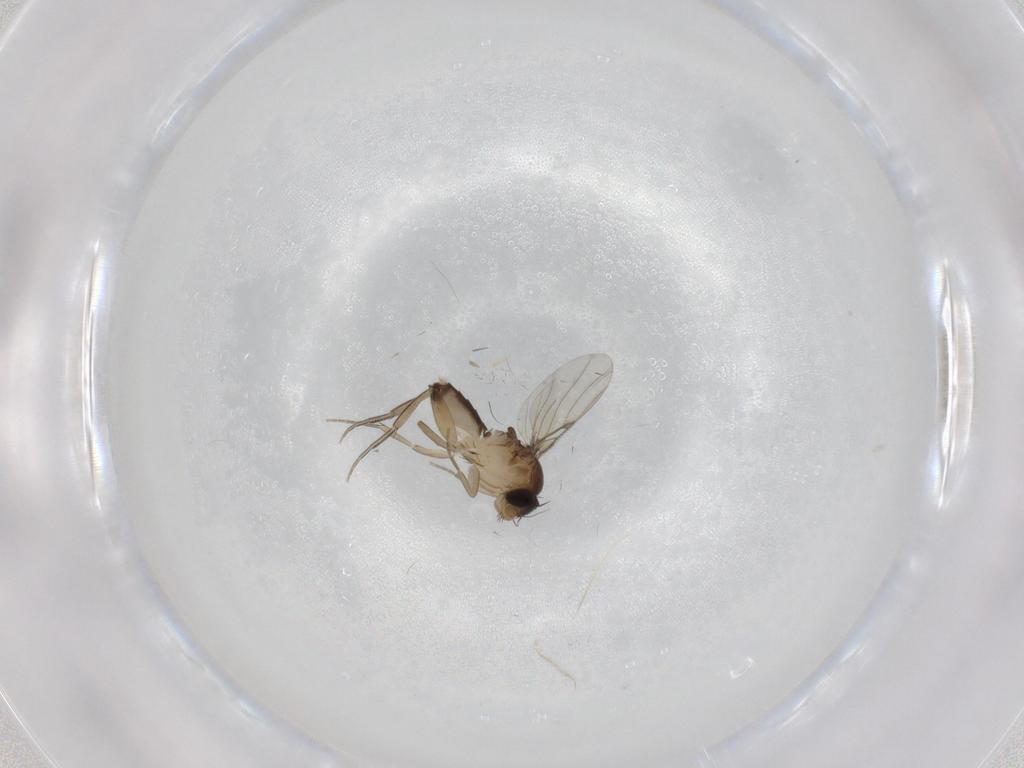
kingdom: Animalia
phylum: Arthropoda
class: Insecta
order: Diptera
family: Phoridae
